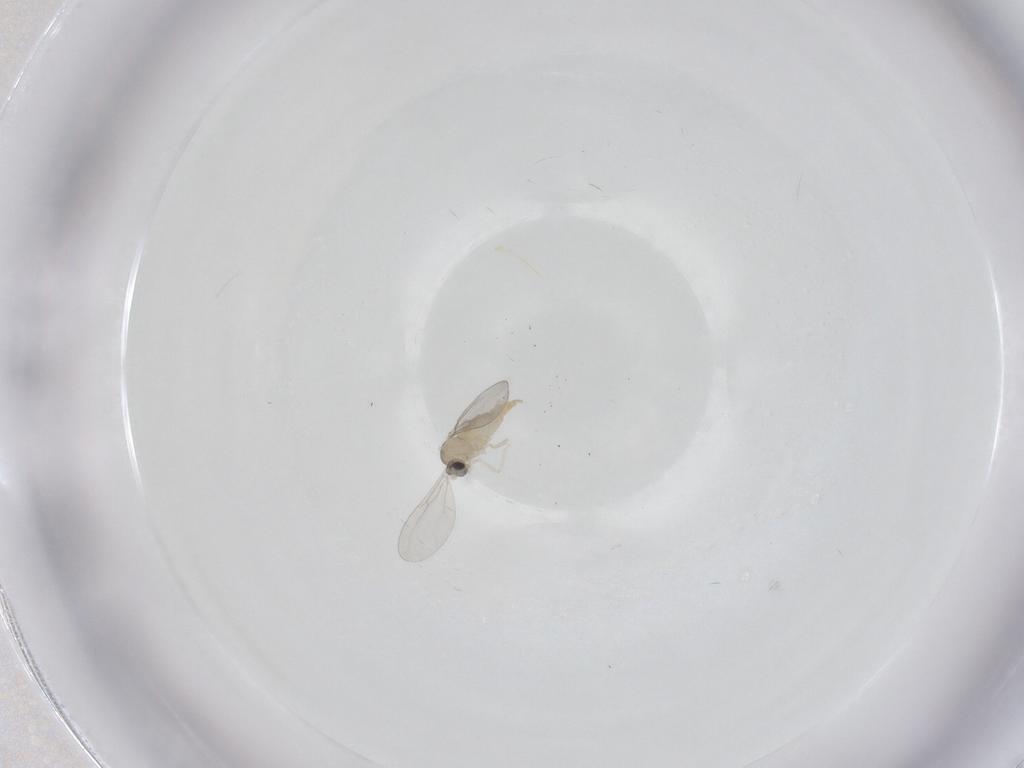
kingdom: Animalia
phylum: Arthropoda
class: Insecta
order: Diptera
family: Cecidomyiidae
